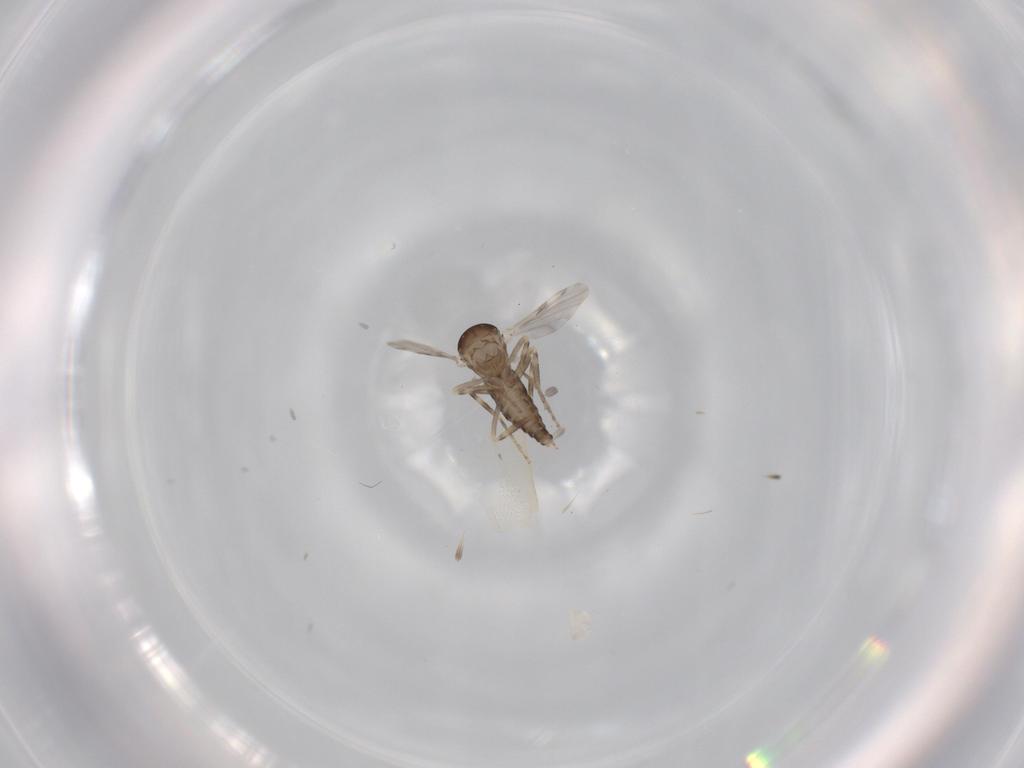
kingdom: Animalia
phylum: Arthropoda
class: Insecta
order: Diptera
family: Ceratopogonidae
